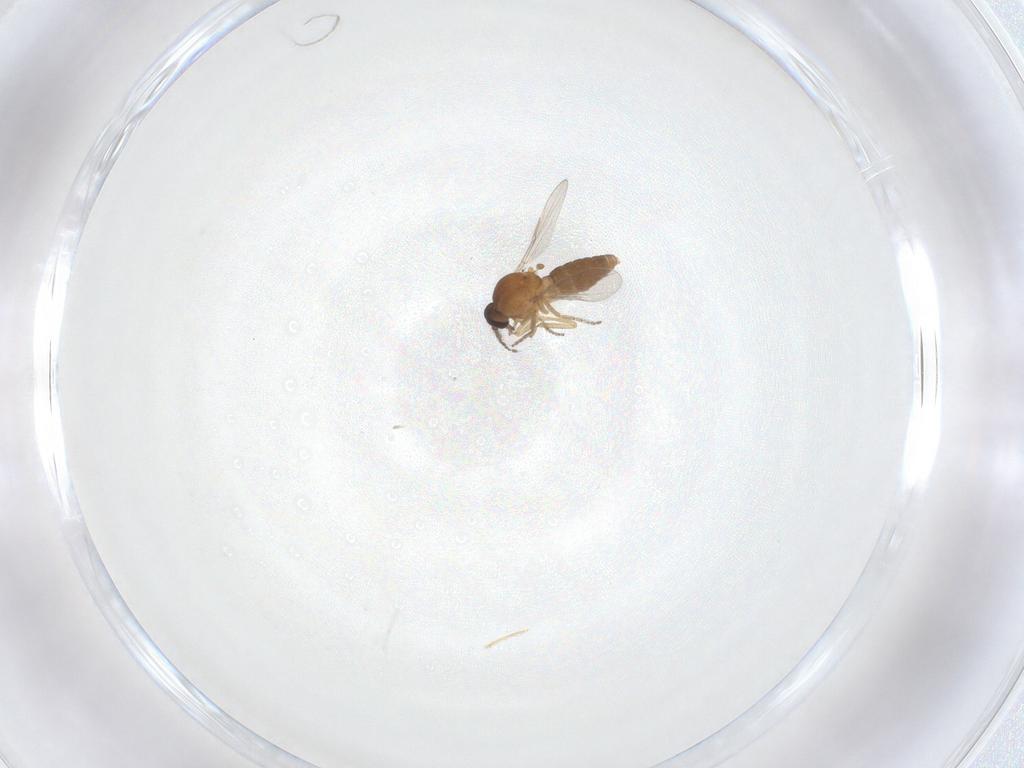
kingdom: Animalia
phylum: Arthropoda
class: Insecta
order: Diptera
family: Ceratopogonidae
